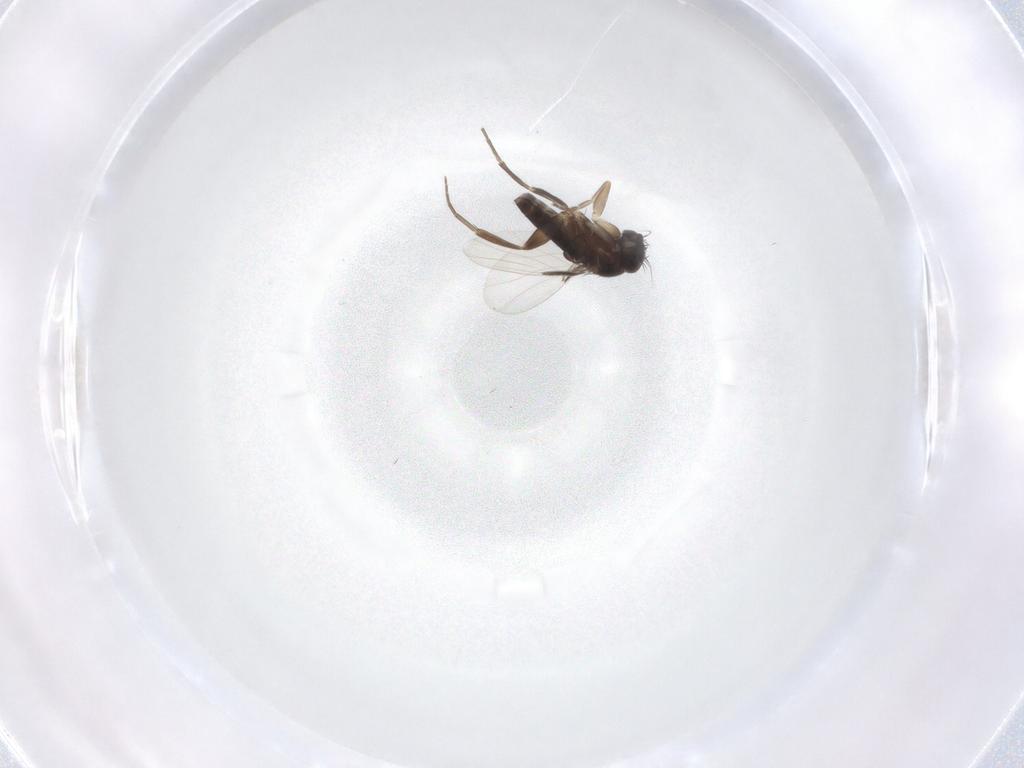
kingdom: Animalia
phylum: Arthropoda
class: Insecta
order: Diptera
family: Phoridae
